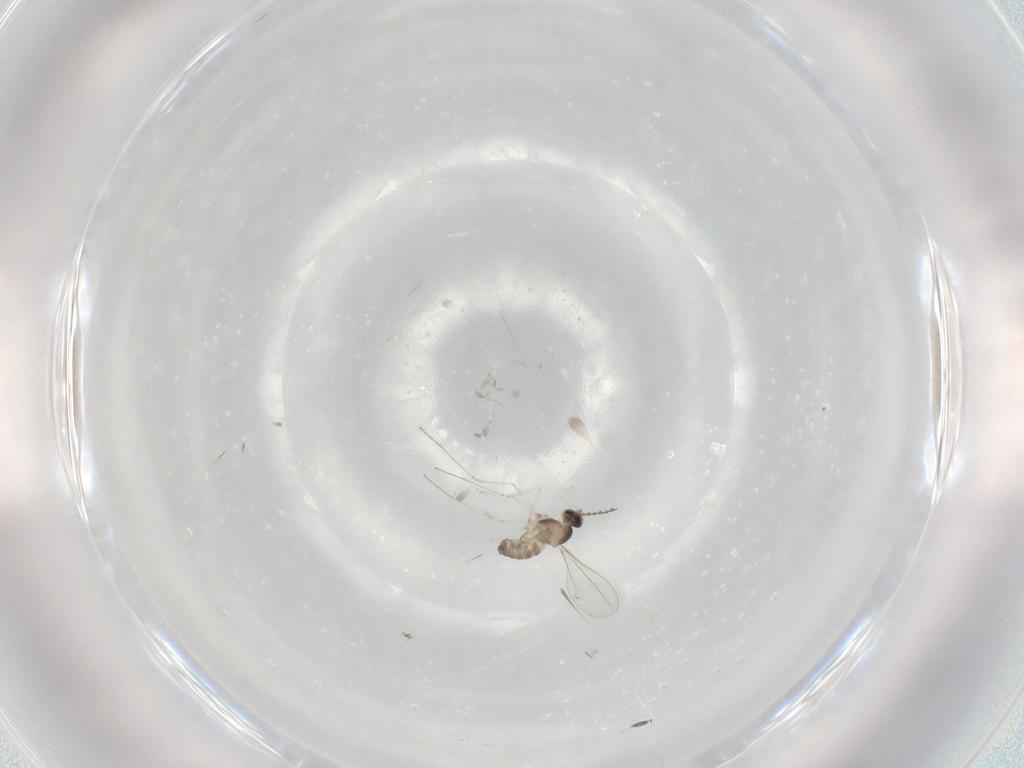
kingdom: Animalia
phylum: Arthropoda
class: Insecta
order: Diptera
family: Cecidomyiidae
